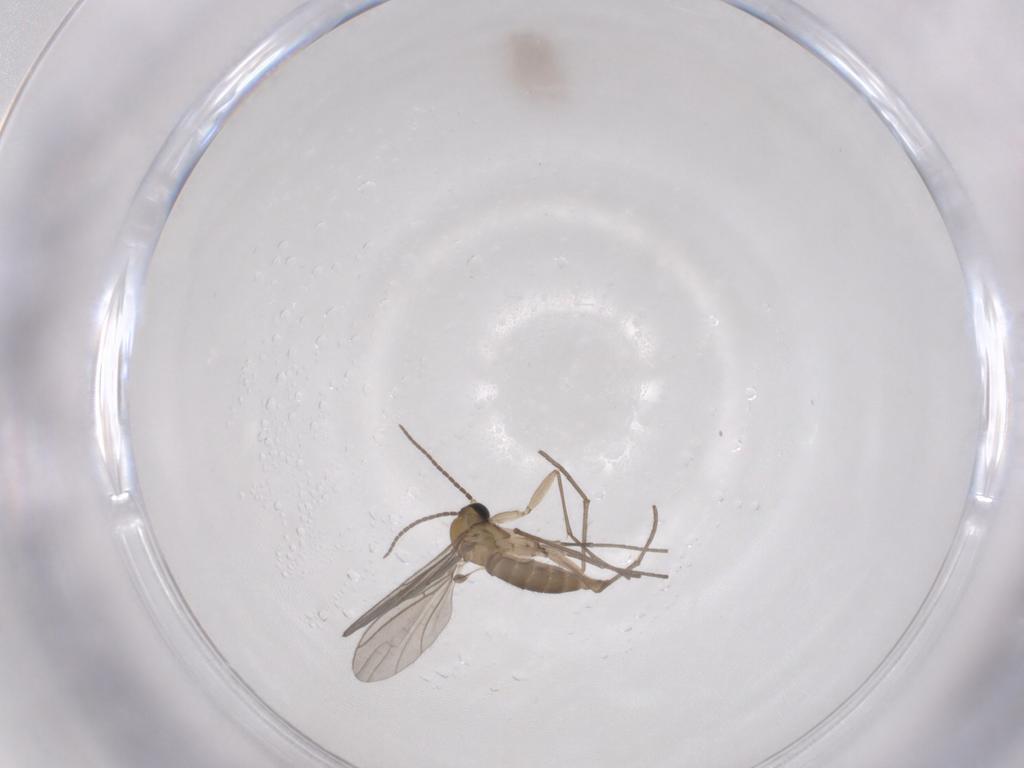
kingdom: Animalia
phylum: Arthropoda
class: Insecta
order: Diptera
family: Sciaridae
